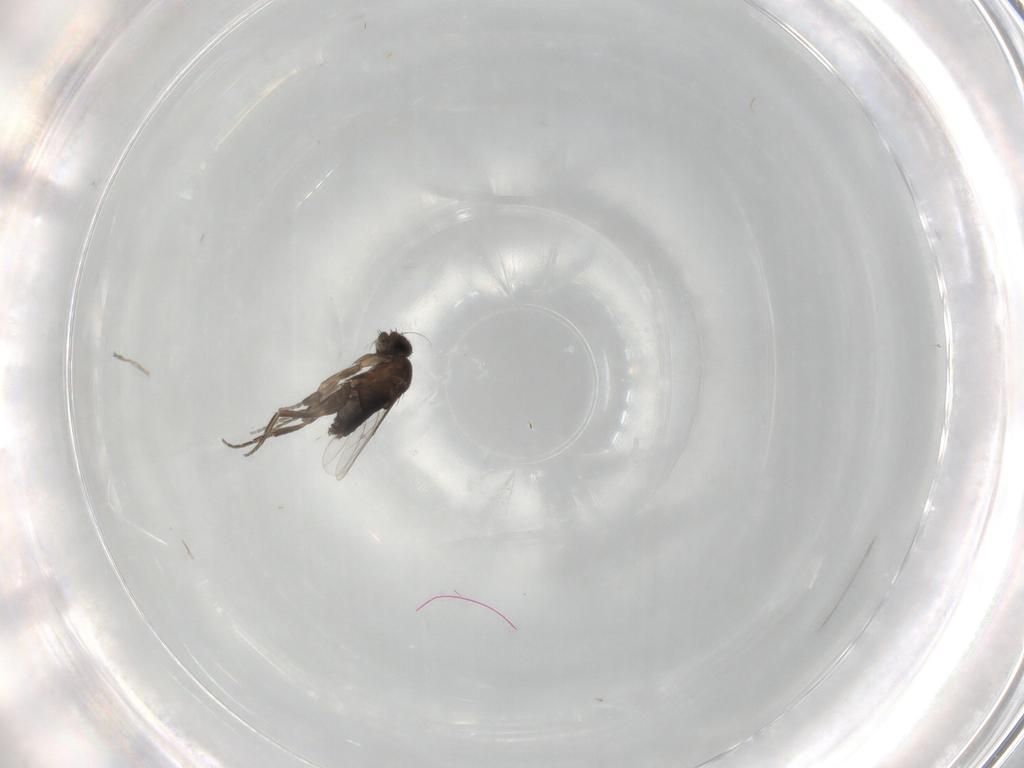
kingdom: Animalia
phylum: Arthropoda
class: Insecta
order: Diptera
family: Phoridae
